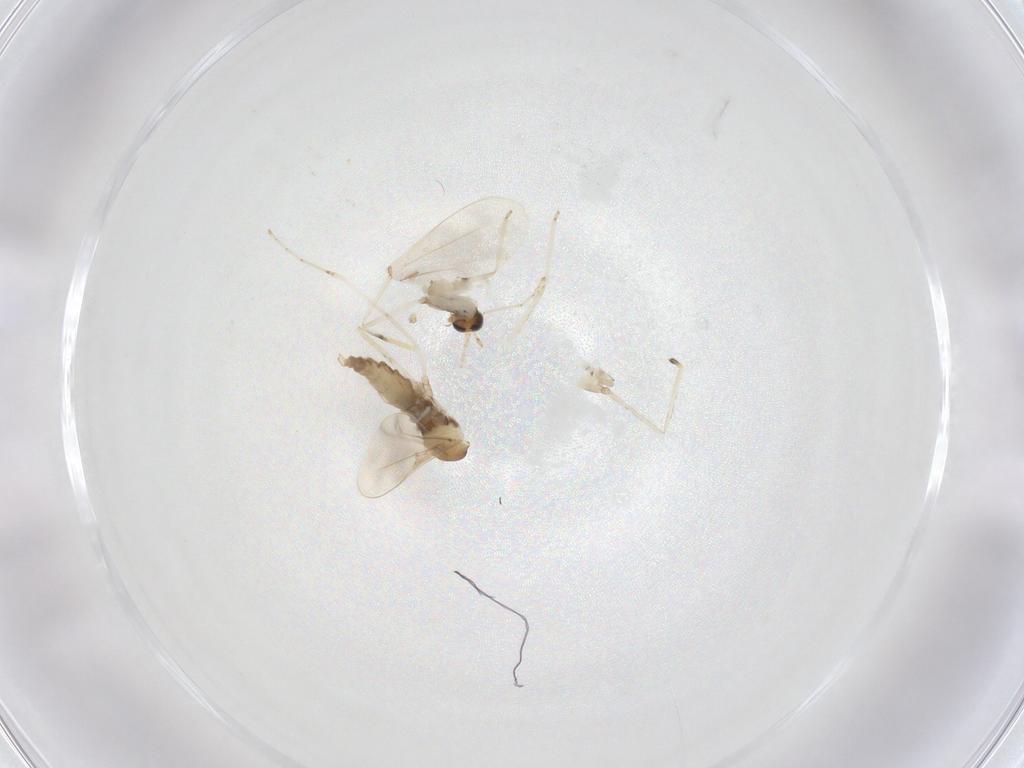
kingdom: Animalia
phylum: Arthropoda
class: Insecta
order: Diptera
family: Cecidomyiidae
